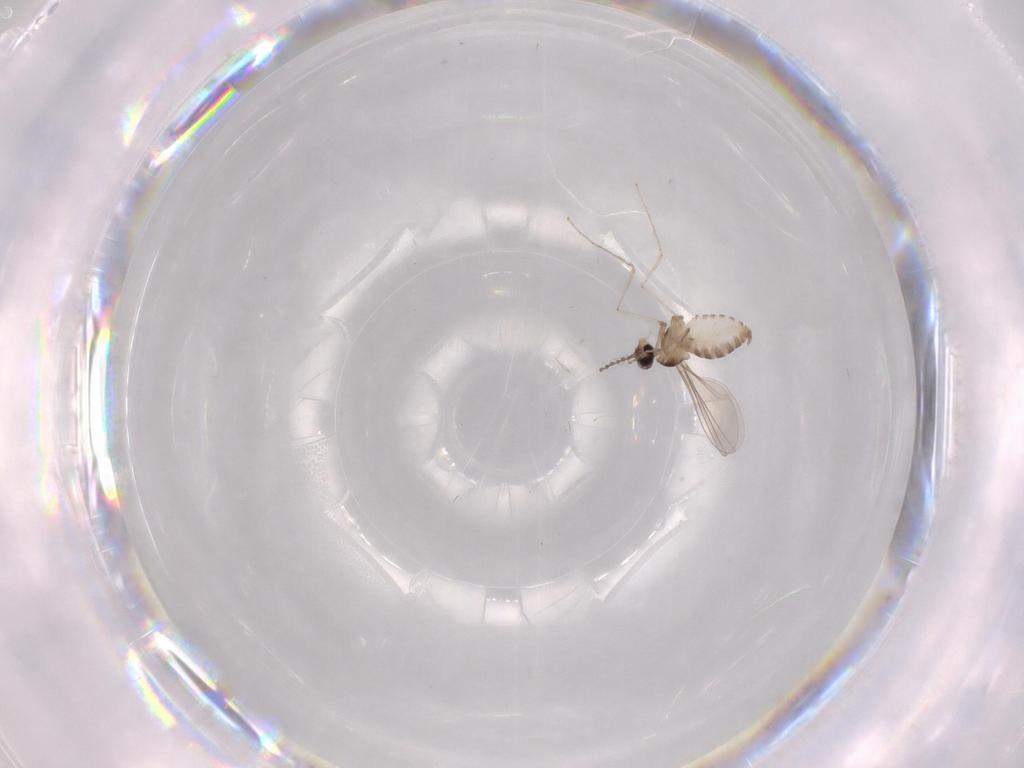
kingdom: Animalia
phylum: Arthropoda
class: Insecta
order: Diptera
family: Cecidomyiidae
